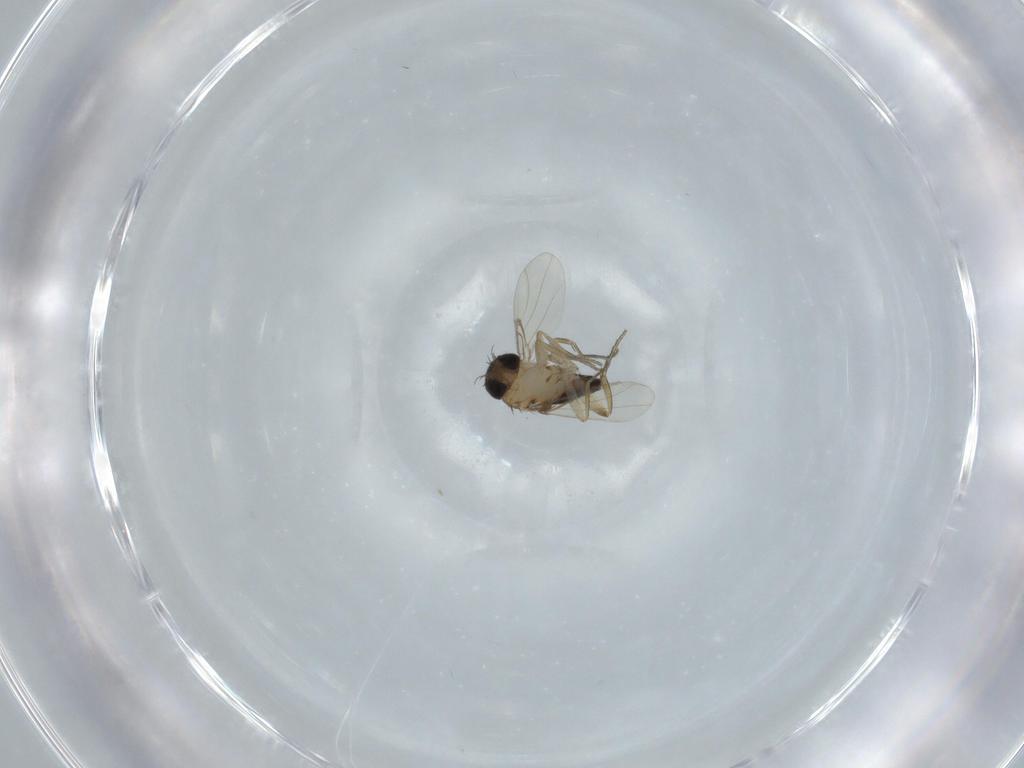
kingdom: Animalia
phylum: Arthropoda
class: Insecta
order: Diptera
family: Phoridae
